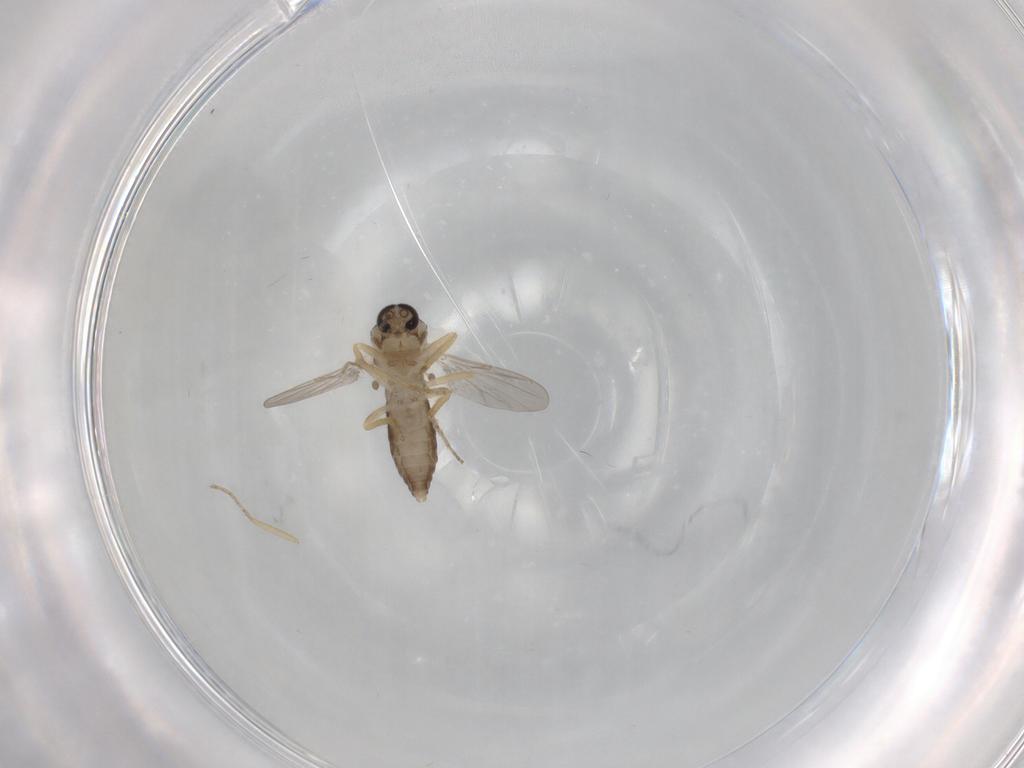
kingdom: Animalia
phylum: Arthropoda
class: Insecta
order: Diptera
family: Ceratopogonidae
